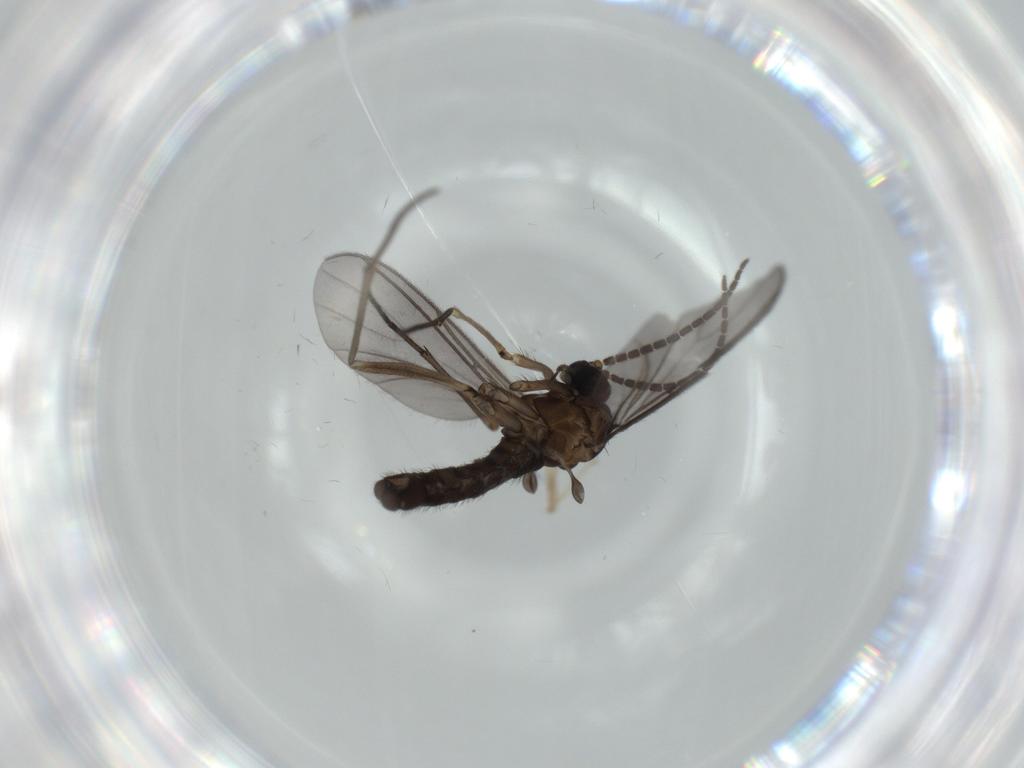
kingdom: Animalia
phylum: Arthropoda
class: Insecta
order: Diptera
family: Sciaridae
